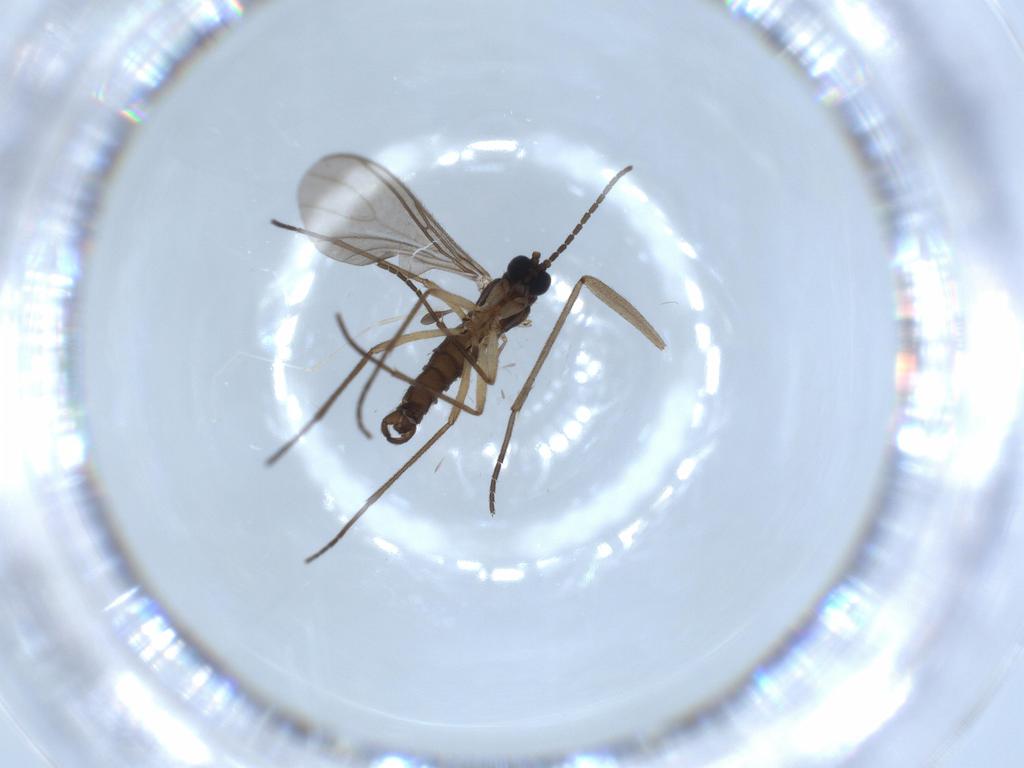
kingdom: Animalia
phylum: Arthropoda
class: Insecta
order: Diptera
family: Sciaridae
